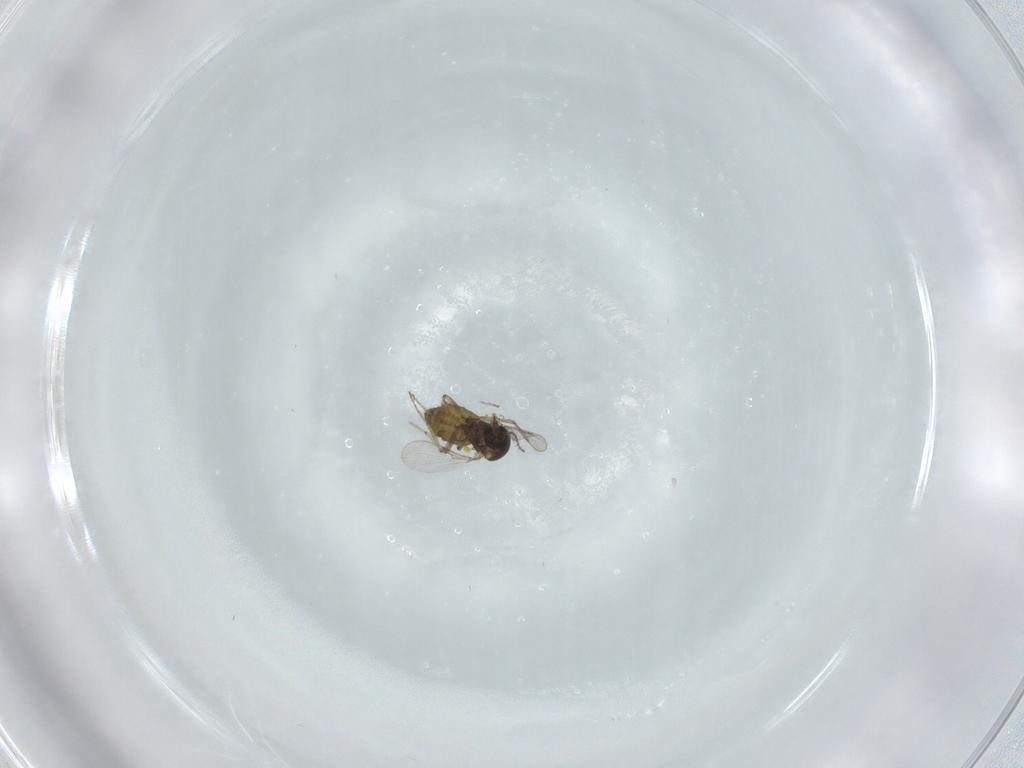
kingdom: Animalia
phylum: Arthropoda
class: Insecta
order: Diptera
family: Ceratopogonidae
